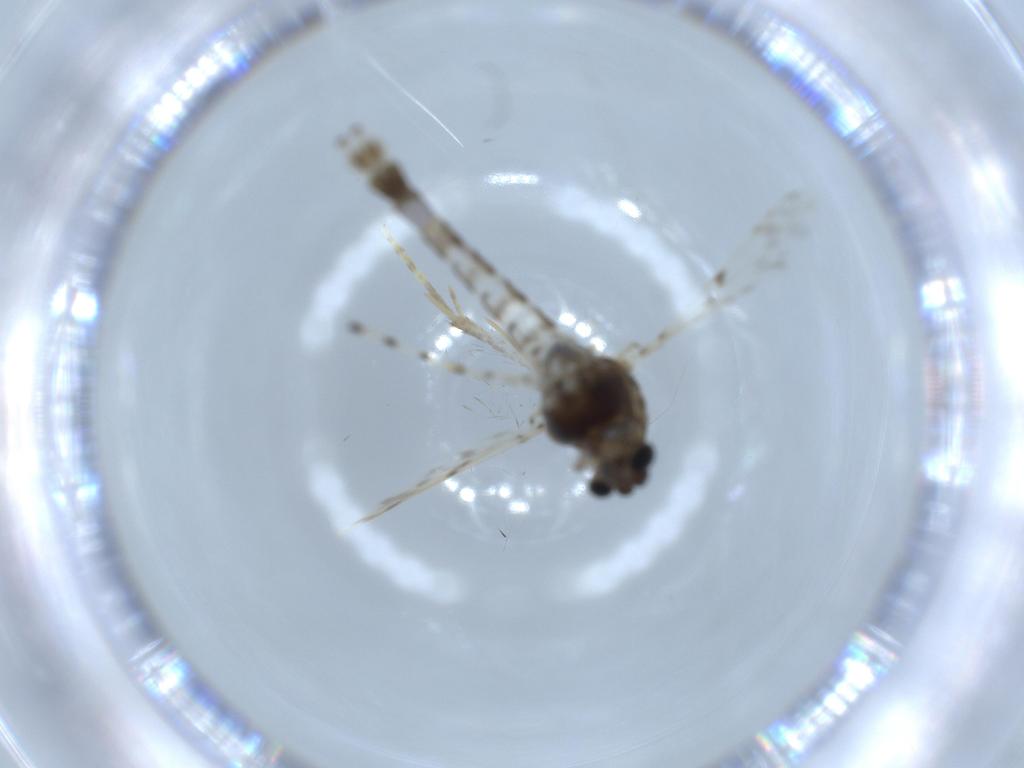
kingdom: Animalia
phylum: Arthropoda
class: Insecta
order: Diptera
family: Chironomidae
